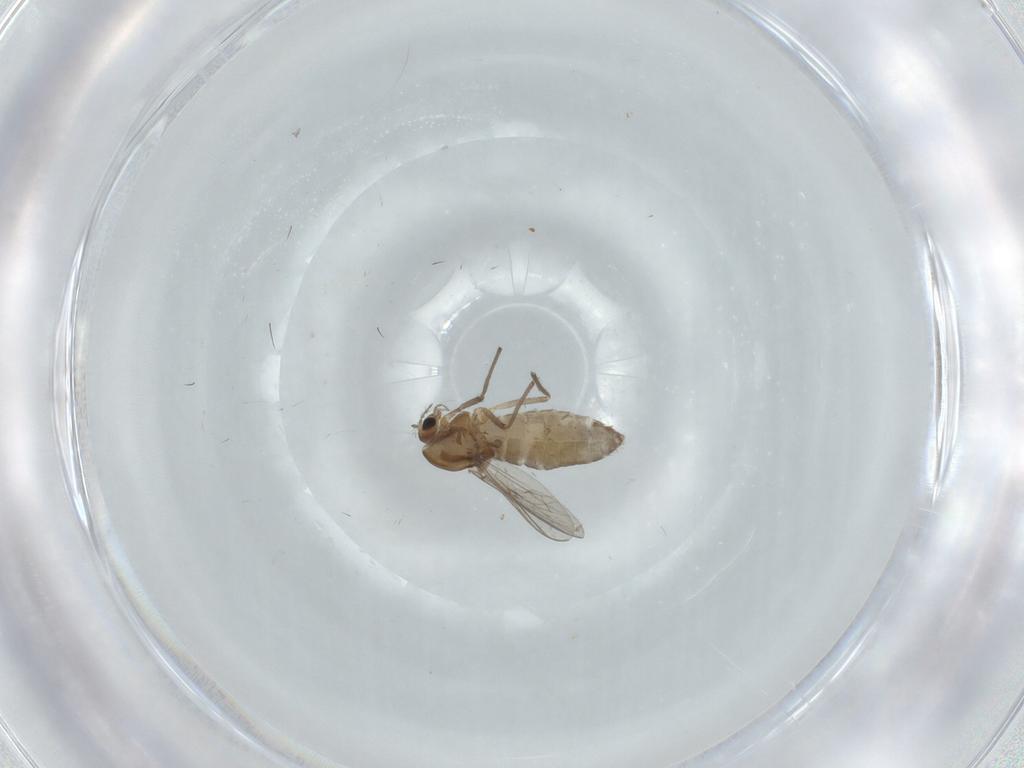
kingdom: Animalia
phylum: Arthropoda
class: Insecta
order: Diptera
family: Chironomidae
